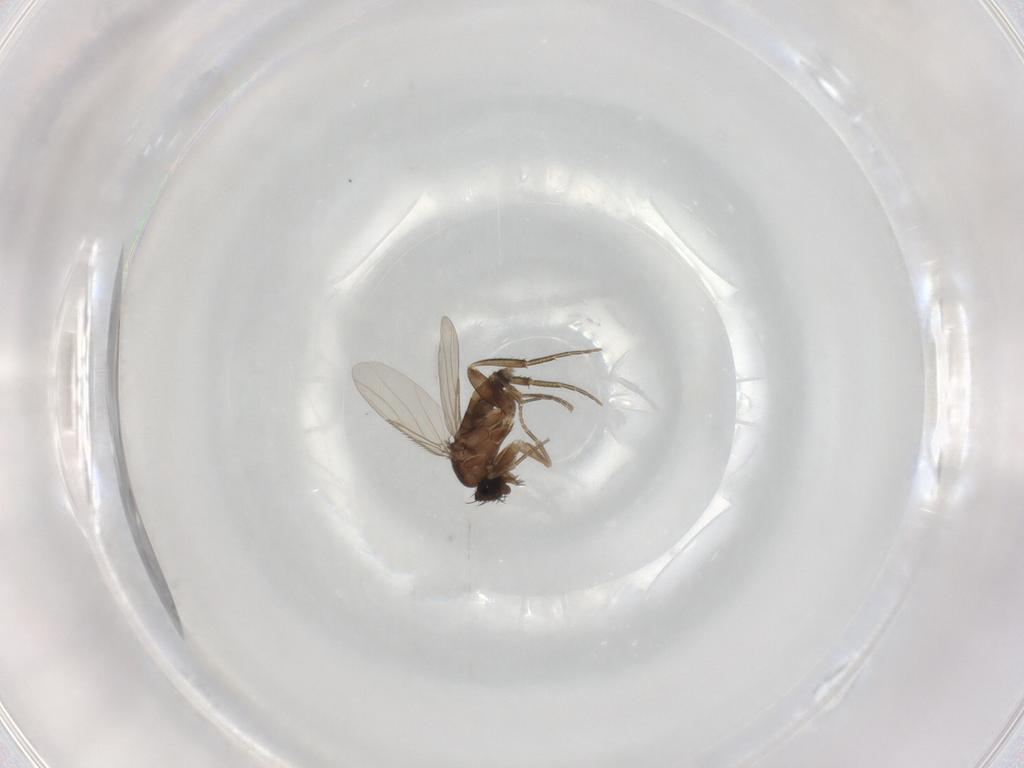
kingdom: Animalia
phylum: Arthropoda
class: Insecta
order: Diptera
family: Phoridae
